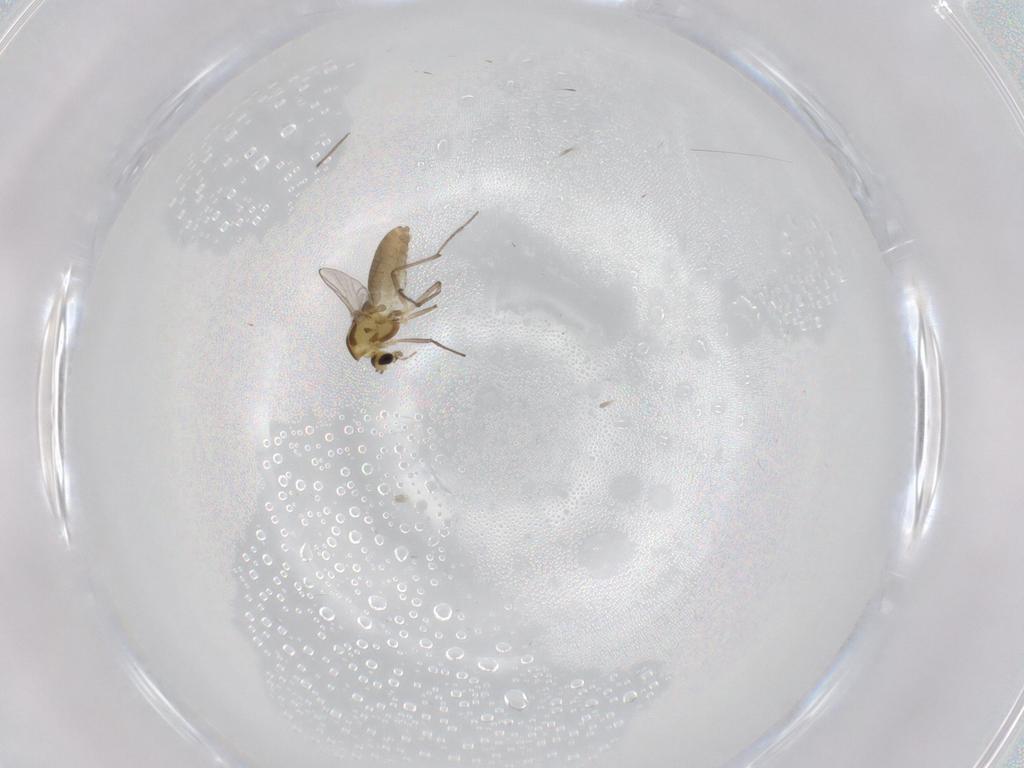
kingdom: Animalia
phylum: Arthropoda
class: Insecta
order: Diptera
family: Chironomidae
